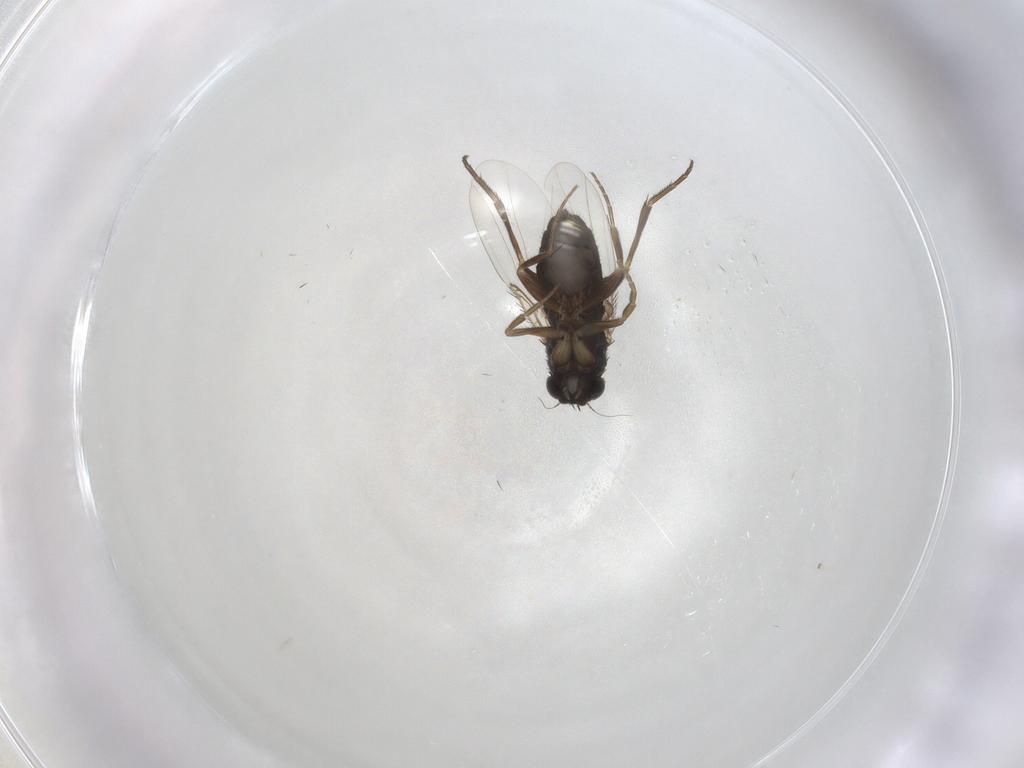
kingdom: Animalia
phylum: Arthropoda
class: Insecta
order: Diptera
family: Phoridae
